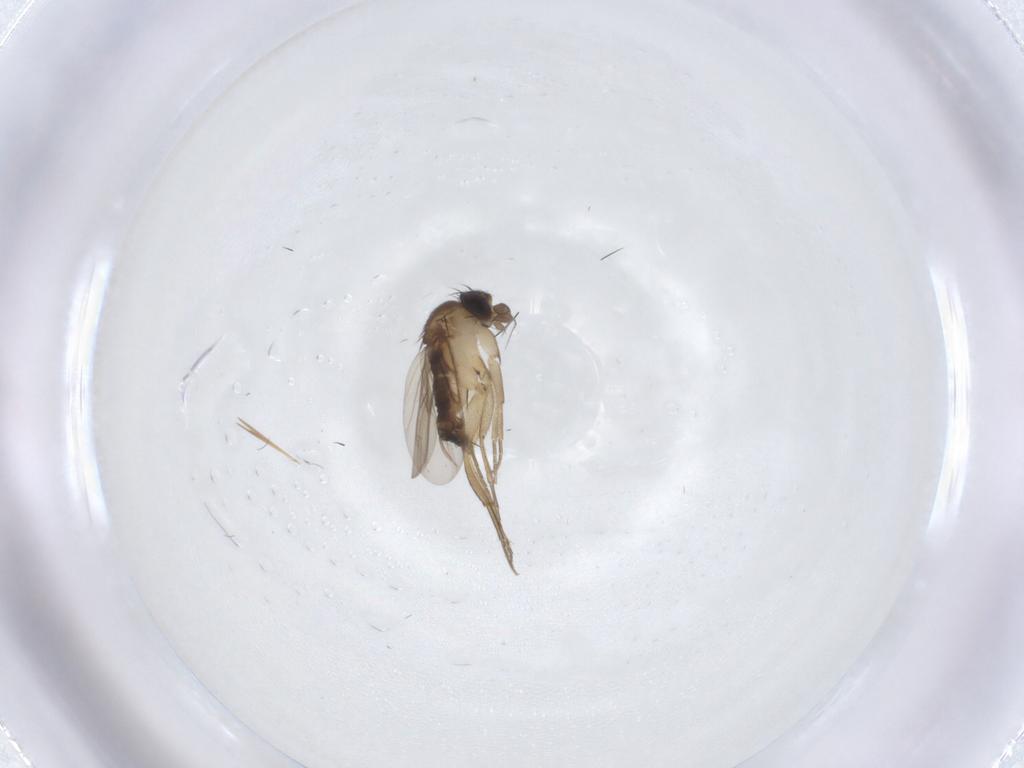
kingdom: Animalia
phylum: Arthropoda
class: Insecta
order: Diptera
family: Phoridae
